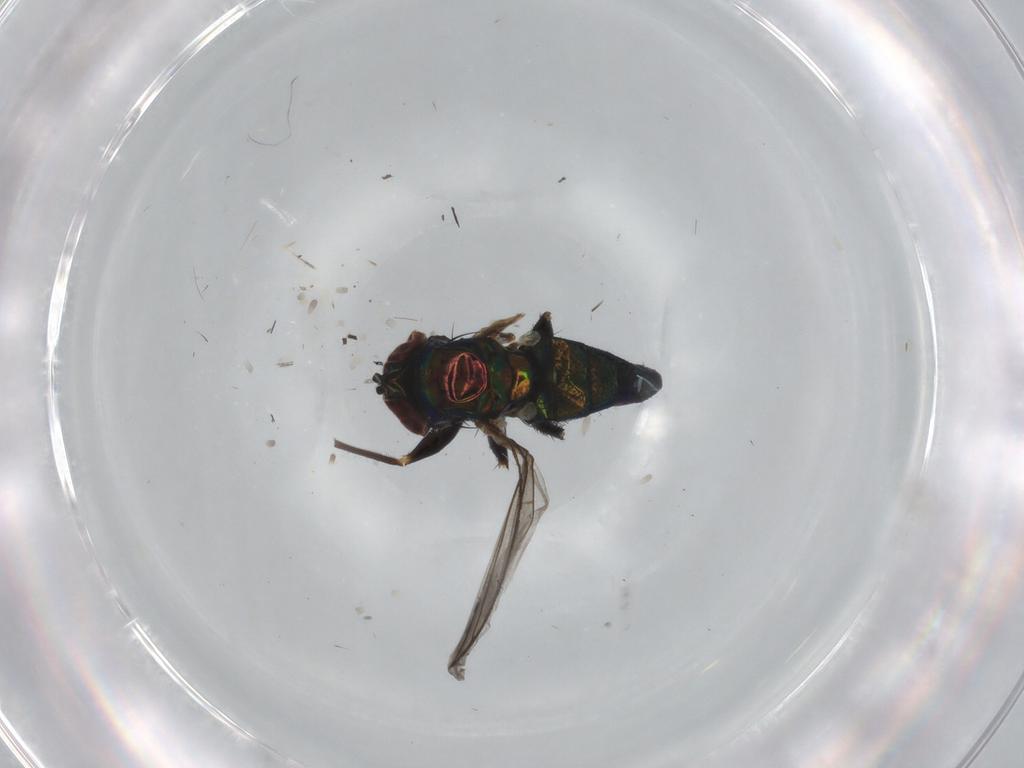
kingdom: Animalia
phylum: Arthropoda
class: Insecta
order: Diptera
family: Dolichopodidae
